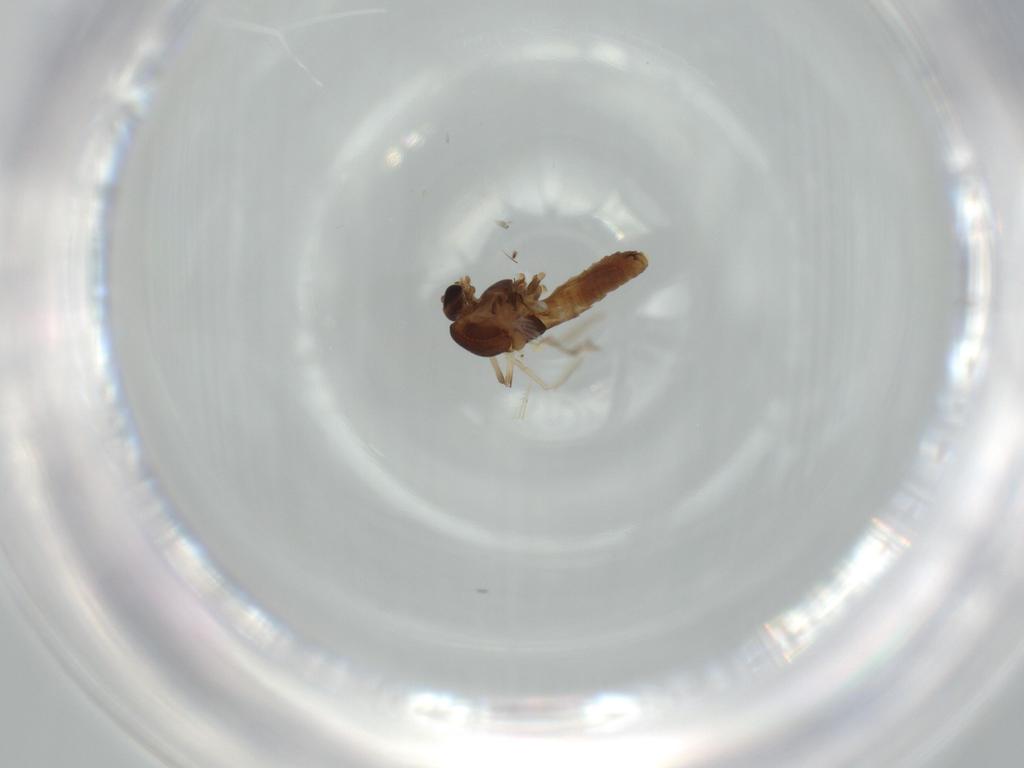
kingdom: Animalia
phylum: Arthropoda
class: Insecta
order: Diptera
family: Chironomidae
